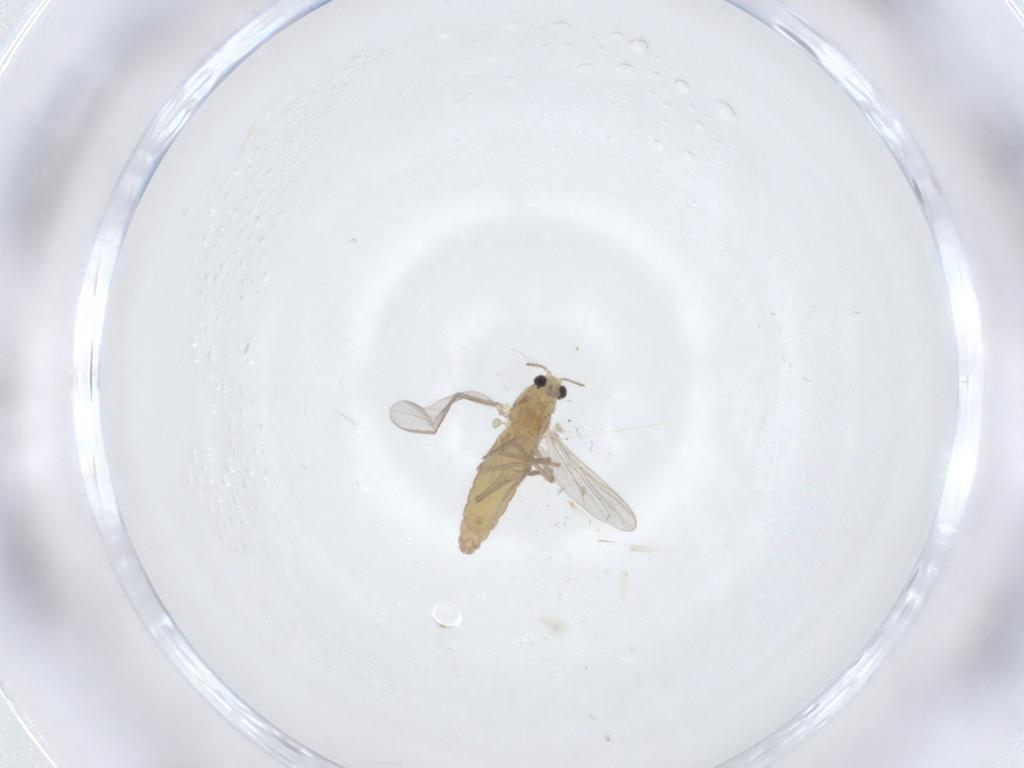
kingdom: Animalia
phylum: Arthropoda
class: Insecta
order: Diptera
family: Chironomidae
